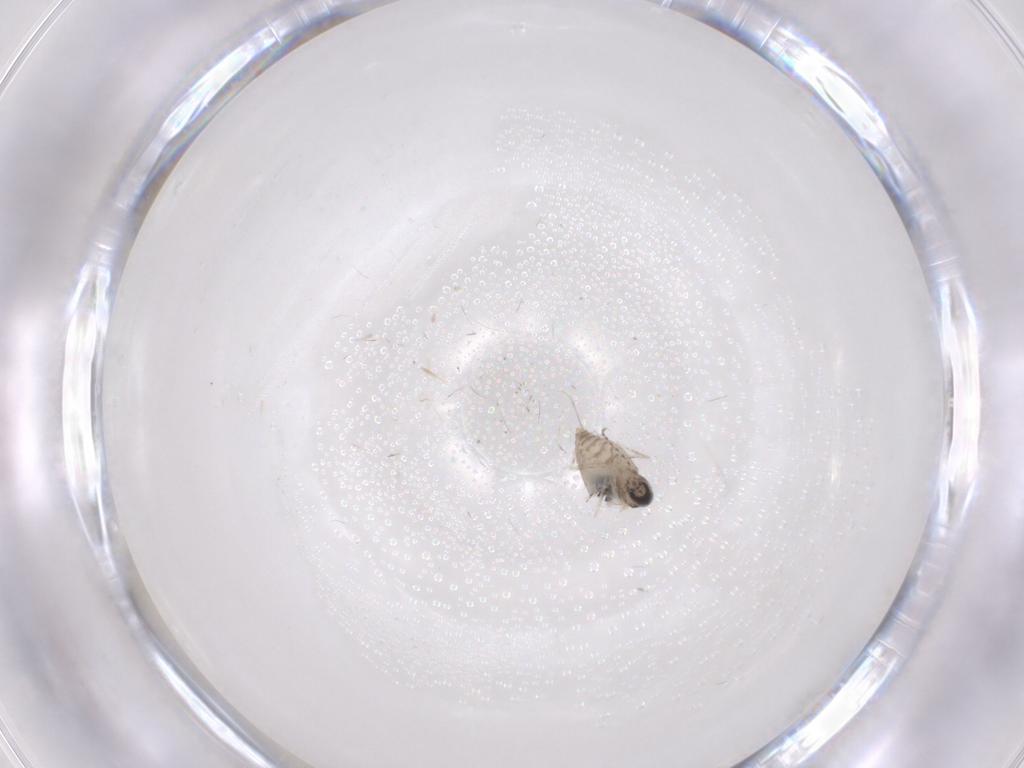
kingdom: Animalia
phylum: Arthropoda
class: Insecta
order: Diptera
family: Cecidomyiidae
